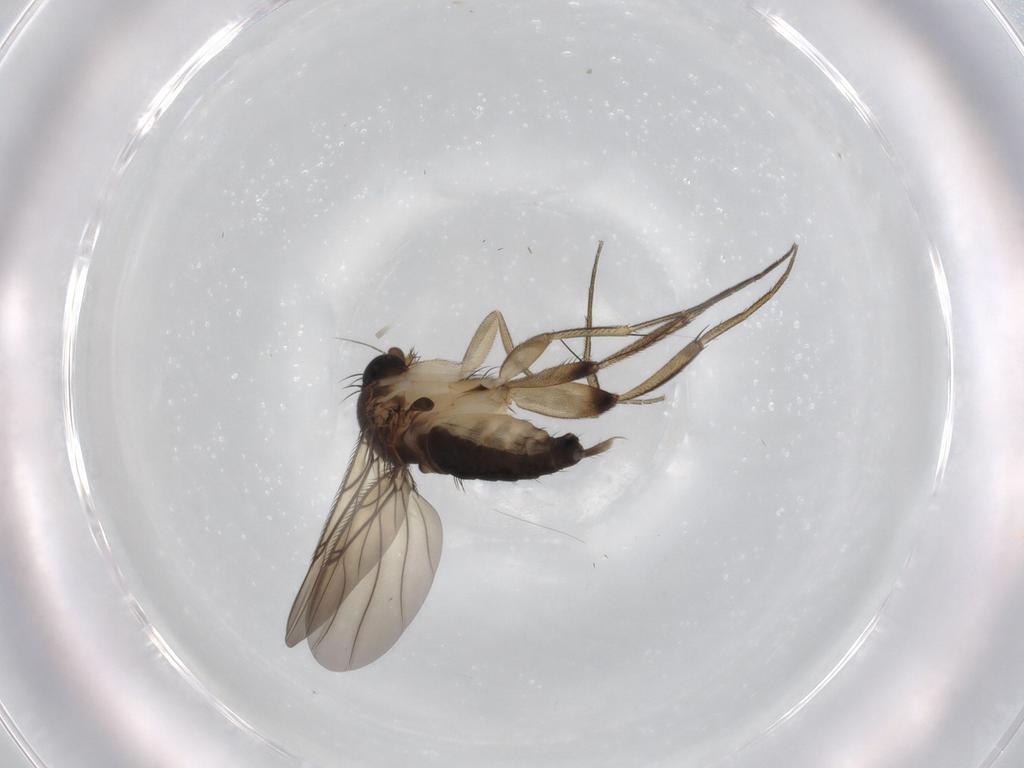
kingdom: Animalia
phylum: Arthropoda
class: Insecta
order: Diptera
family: Phoridae
